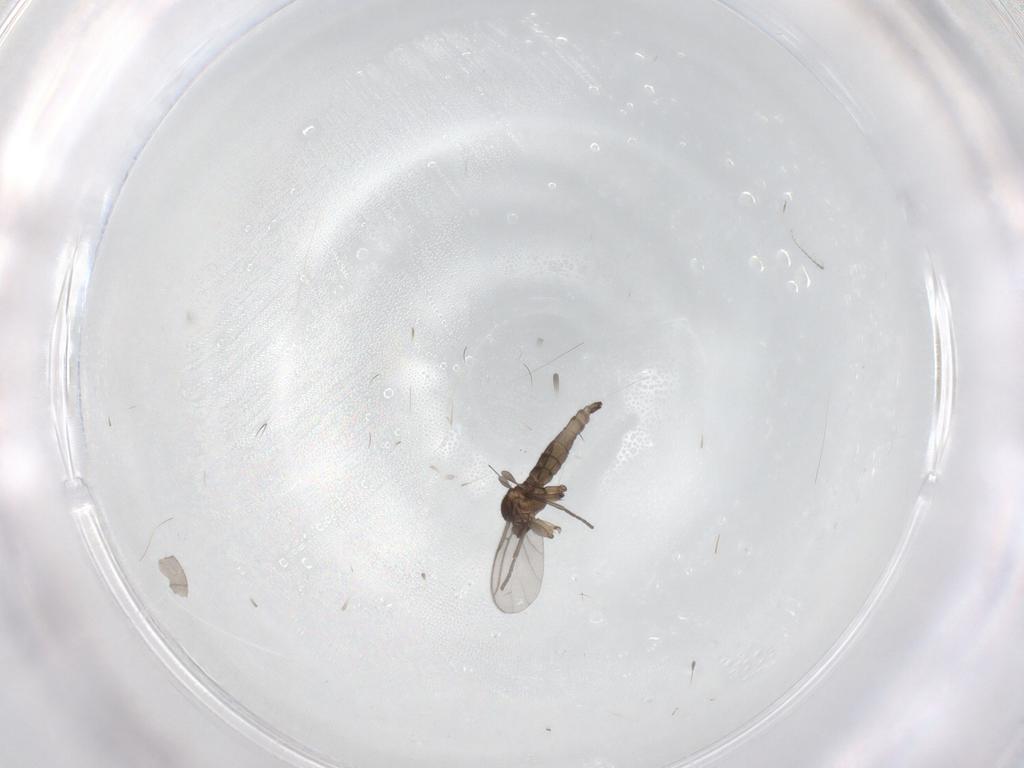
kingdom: Animalia
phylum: Arthropoda
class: Insecta
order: Diptera
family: Sciaridae
